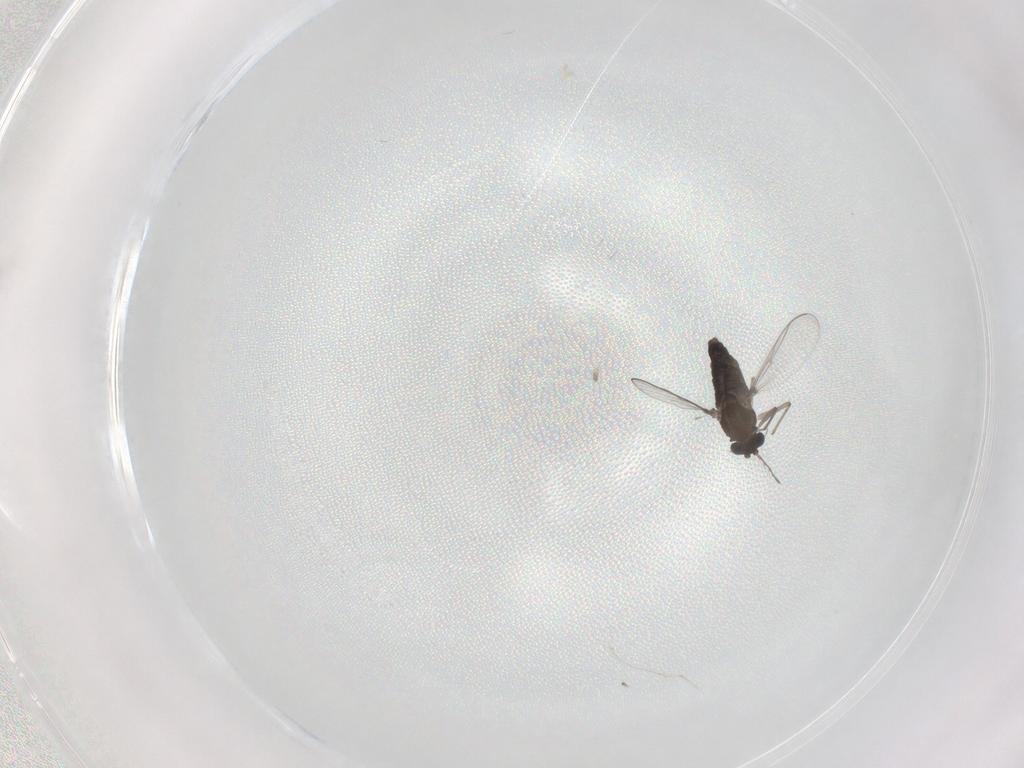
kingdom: Animalia
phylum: Arthropoda
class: Insecta
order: Diptera
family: Chironomidae
